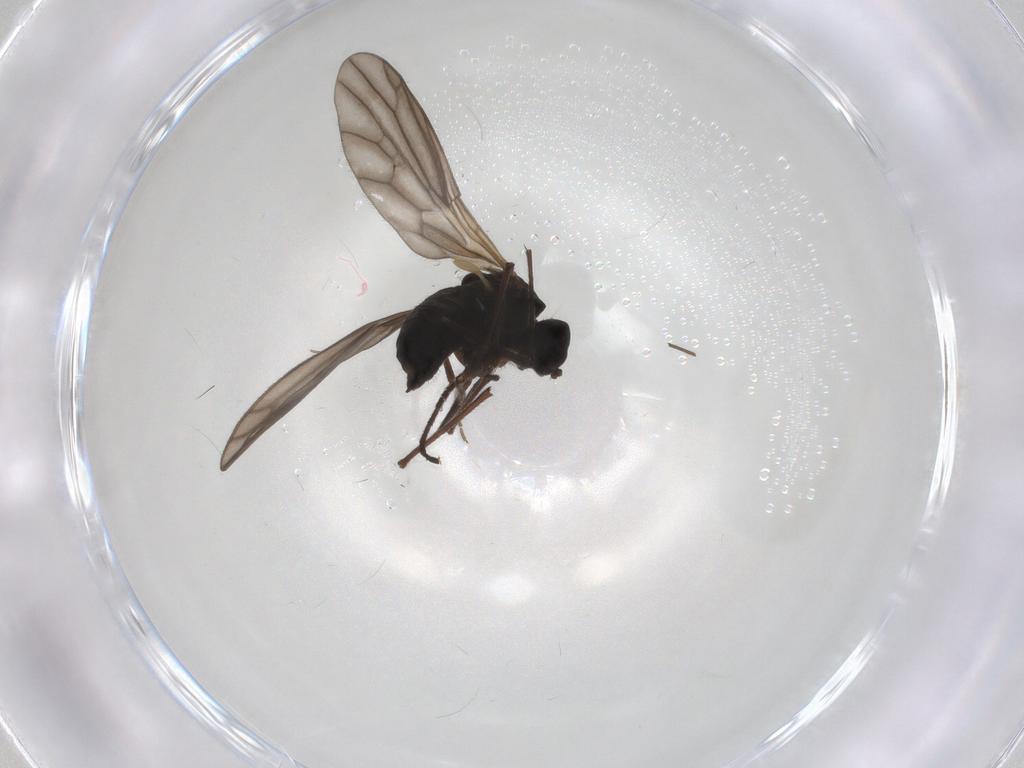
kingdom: Animalia
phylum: Arthropoda
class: Insecta
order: Diptera
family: Empididae
